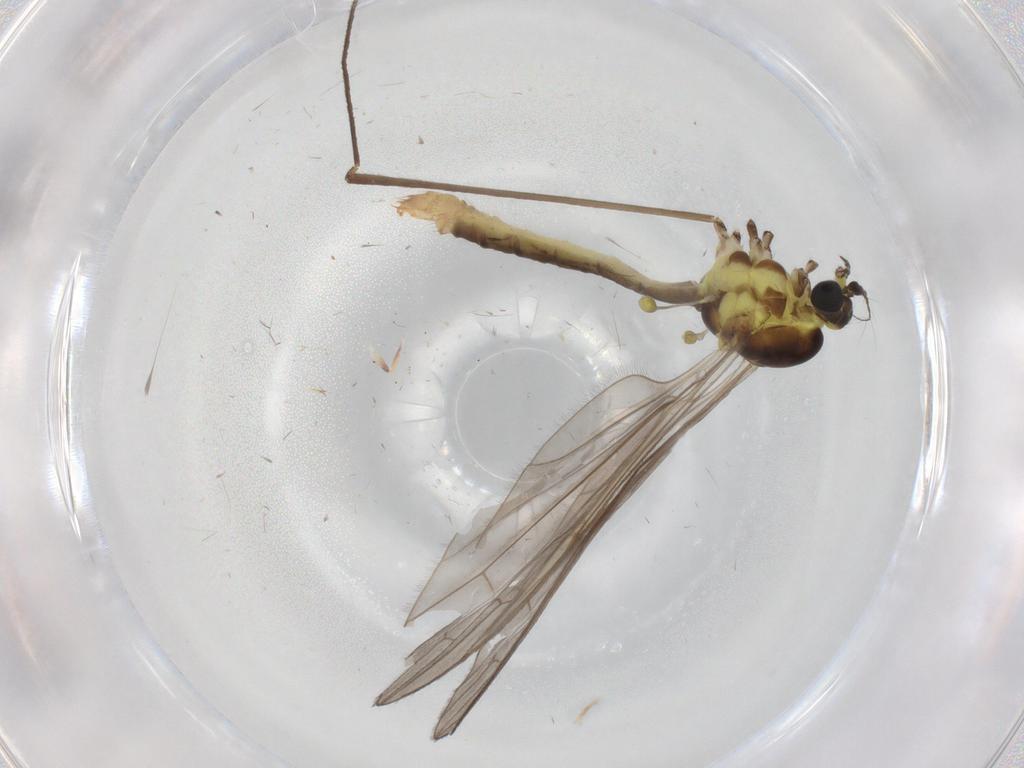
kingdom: Animalia
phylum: Arthropoda
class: Insecta
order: Diptera
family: Limoniidae
